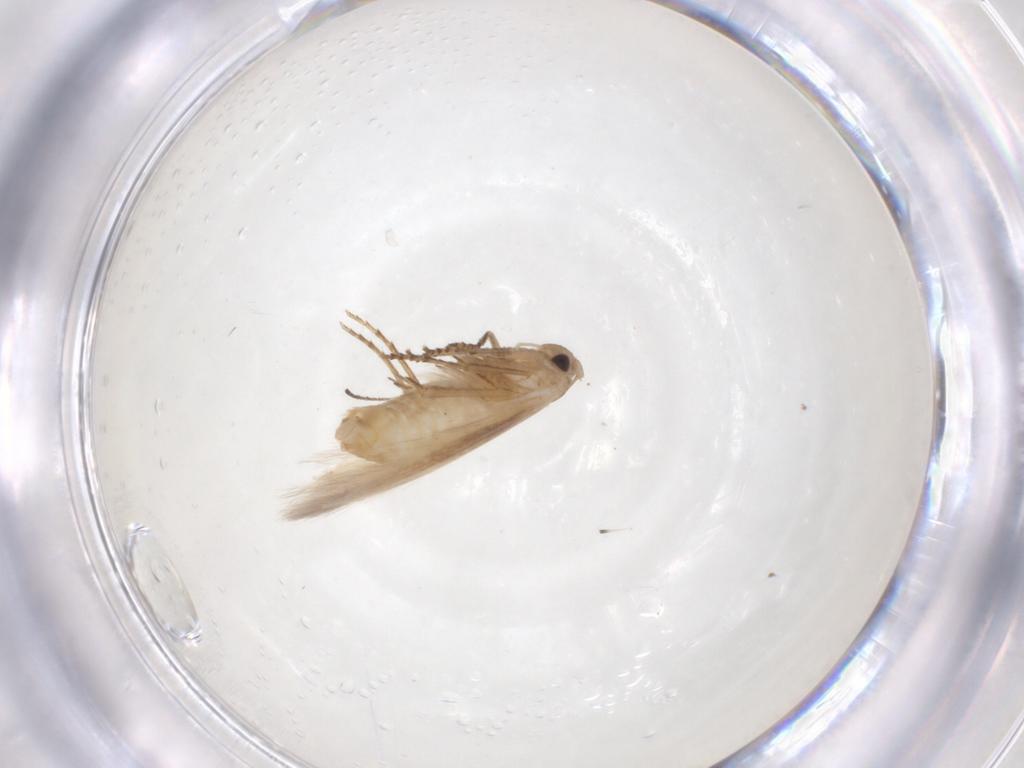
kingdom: Animalia
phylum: Arthropoda
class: Insecta
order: Lepidoptera
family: Bucculatricidae
